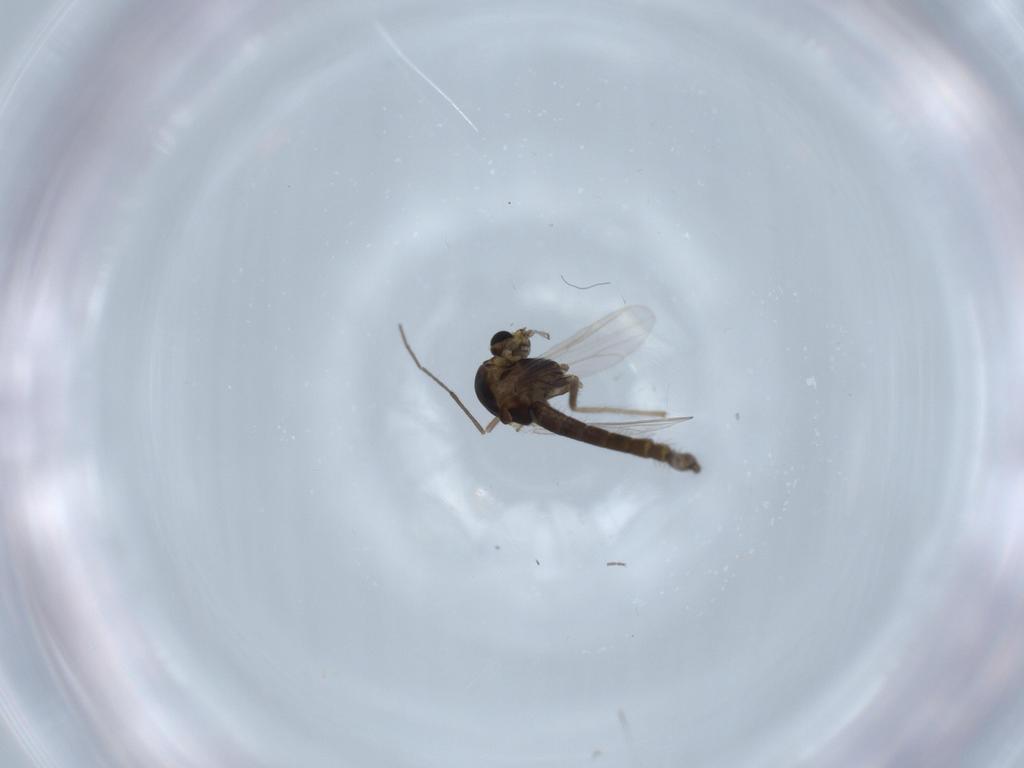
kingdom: Animalia
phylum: Arthropoda
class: Insecta
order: Diptera
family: Chironomidae
